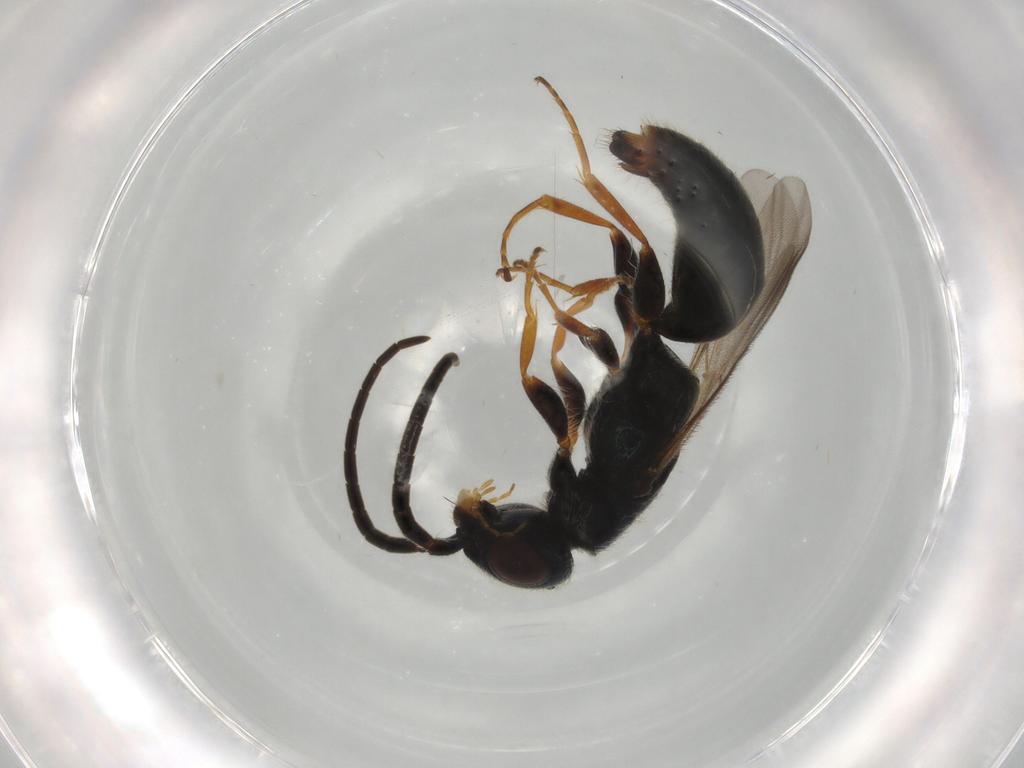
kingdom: Animalia
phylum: Arthropoda
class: Insecta
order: Hymenoptera
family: Bethylidae
